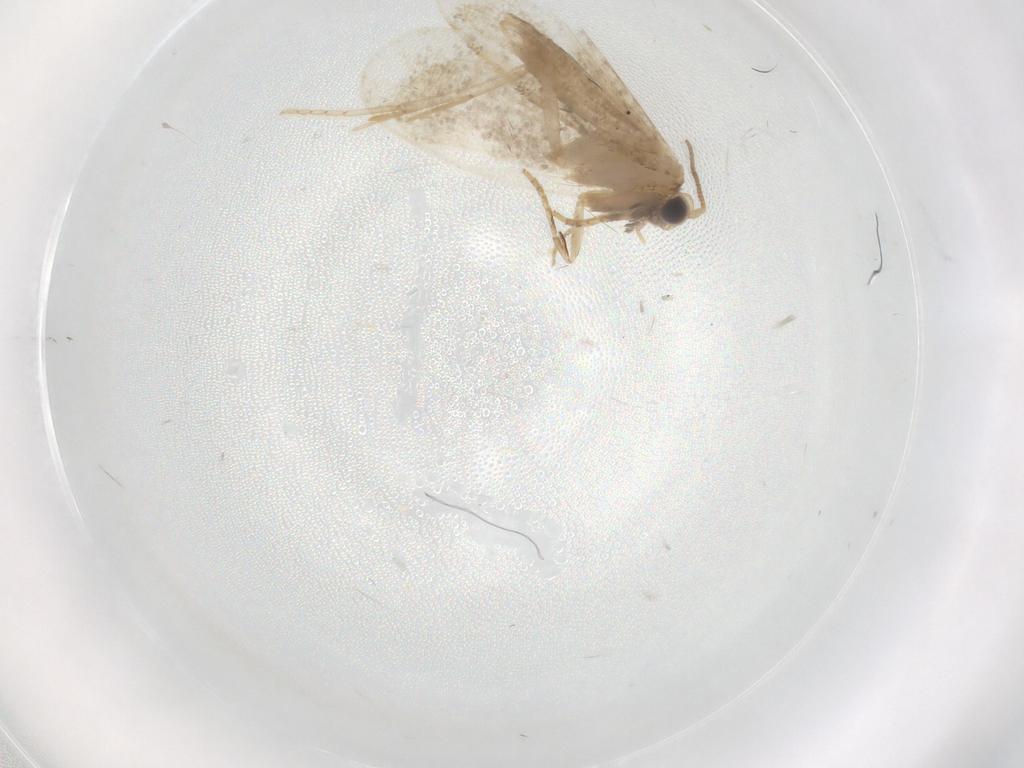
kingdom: Animalia
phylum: Arthropoda
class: Insecta
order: Lepidoptera
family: Psychidae
